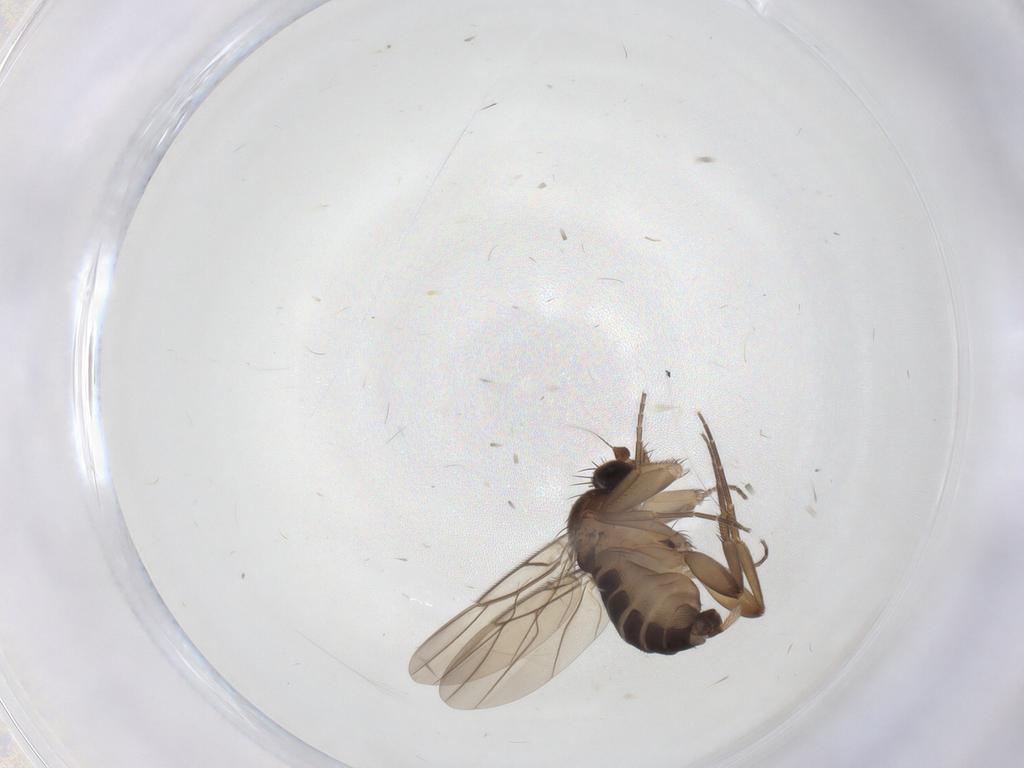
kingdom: Animalia
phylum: Arthropoda
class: Insecta
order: Diptera
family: Phoridae
